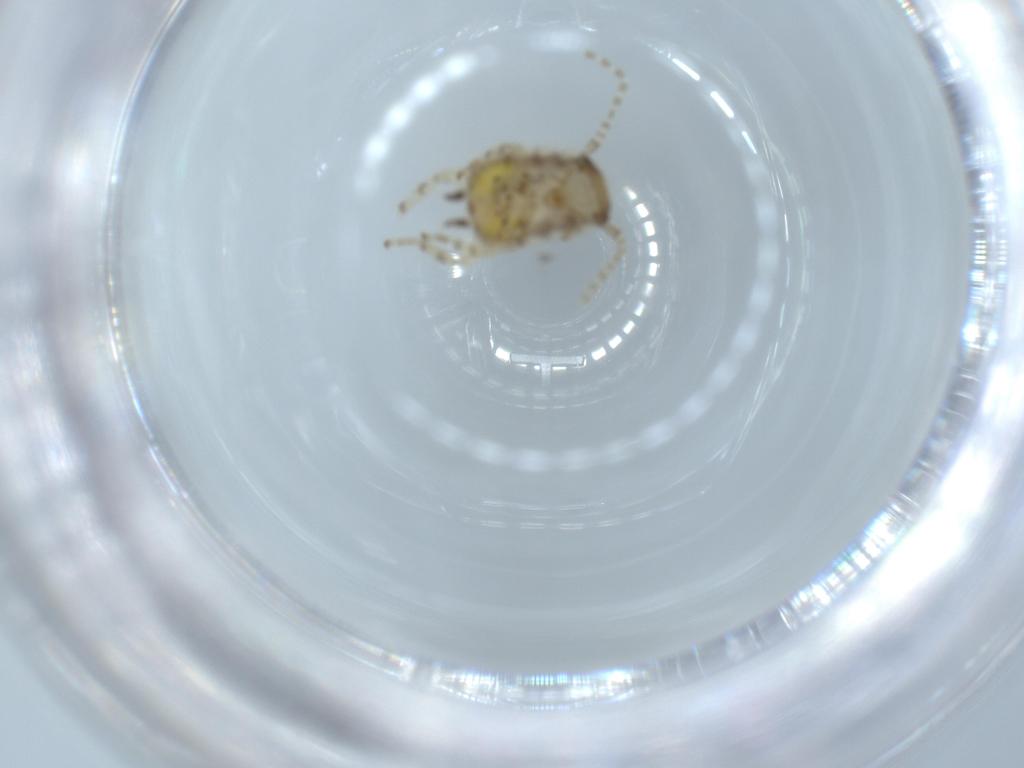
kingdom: Animalia
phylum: Arthropoda
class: Insecta
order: Blattodea
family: Ectobiidae
